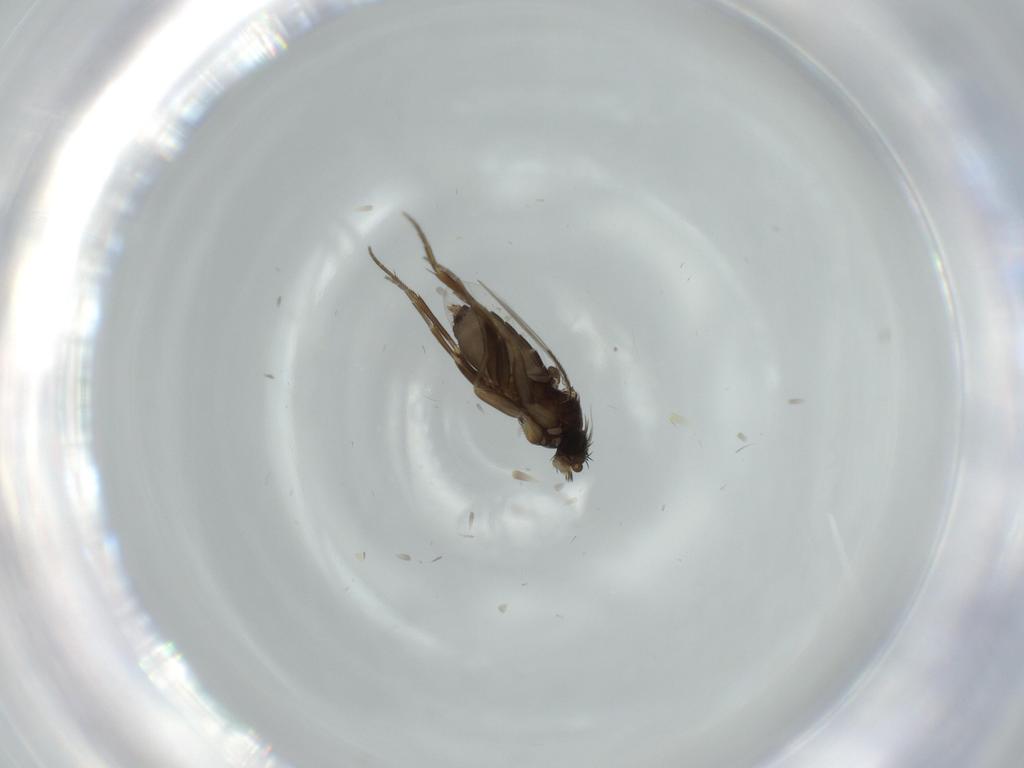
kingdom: Animalia
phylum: Arthropoda
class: Insecta
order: Diptera
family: Phoridae
